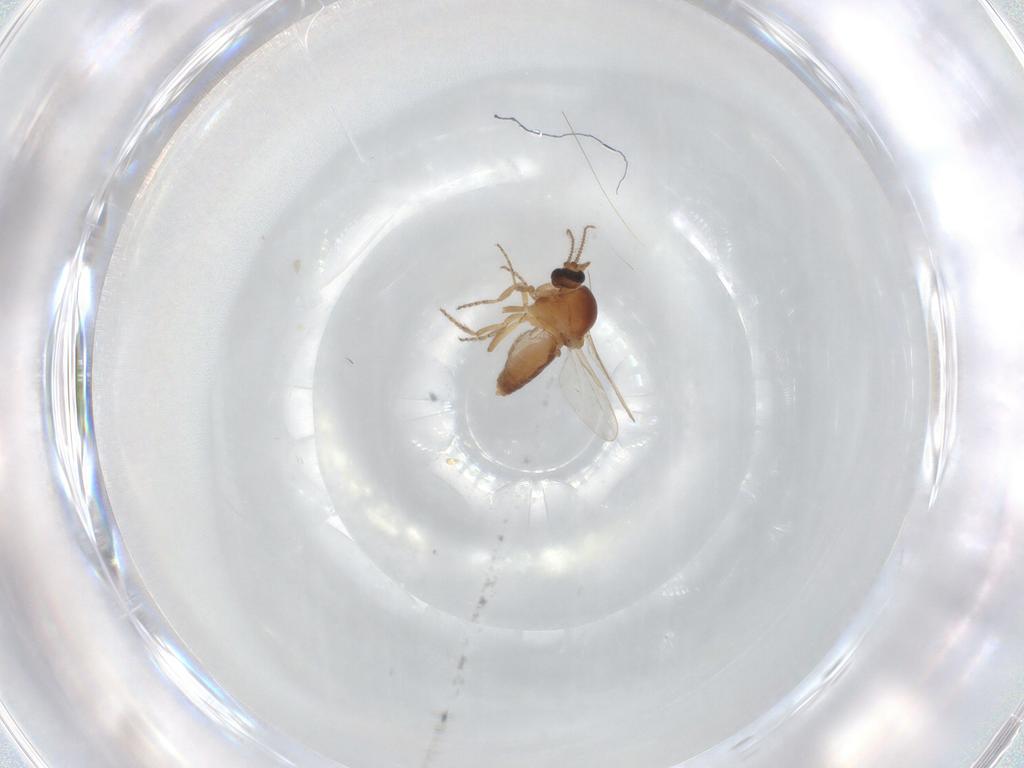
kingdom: Animalia
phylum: Arthropoda
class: Insecta
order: Diptera
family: Ceratopogonidae
